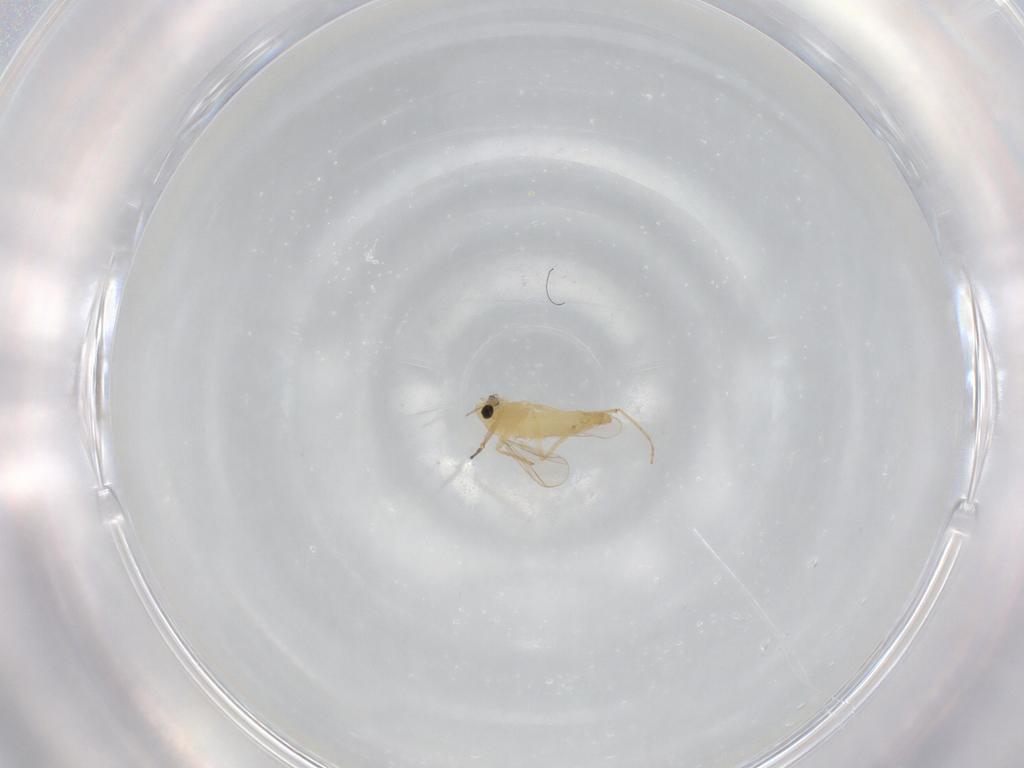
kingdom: Animalia
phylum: Arthropoda
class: Insecta
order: Diptera
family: Chironomidae
